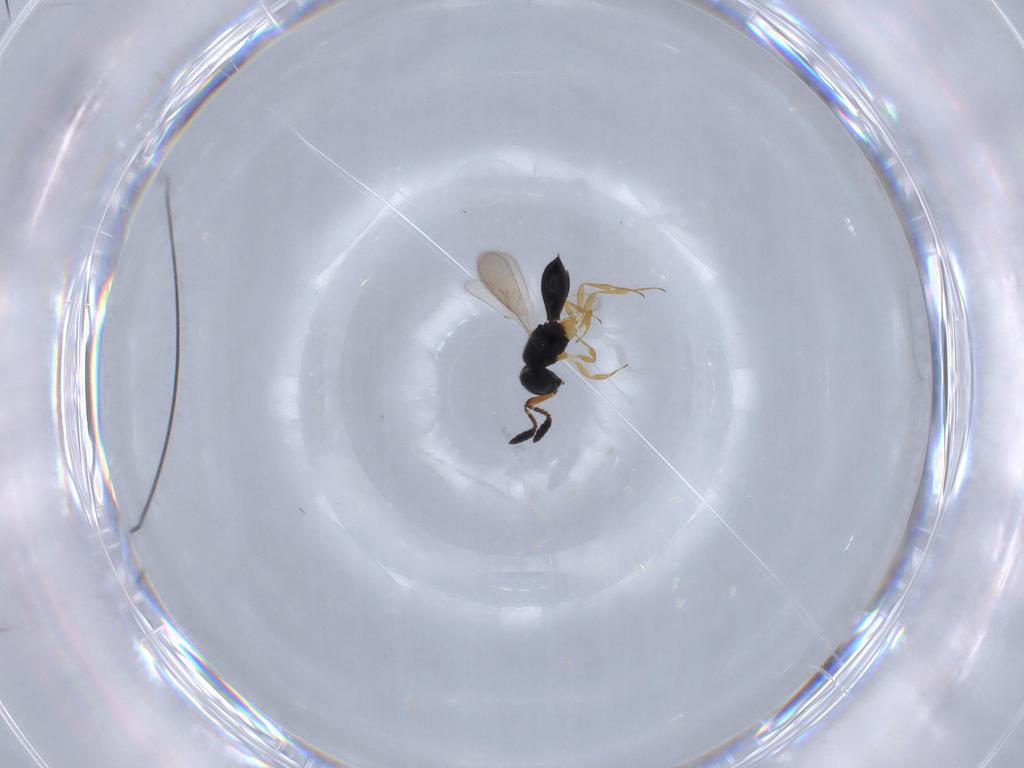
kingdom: Animalia
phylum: Arthropoda
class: Insecta
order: Hymenoptera
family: Scelionidae
